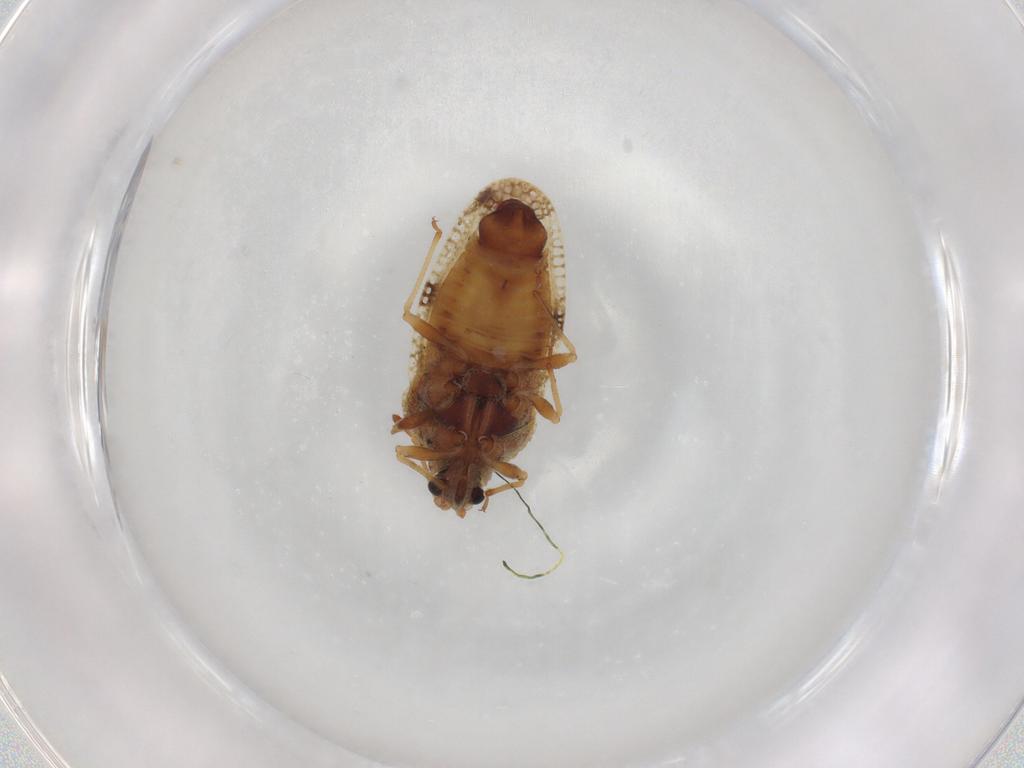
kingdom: Animalia
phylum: Arthropoda
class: Insecta
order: Hemiptera
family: Tingidae
